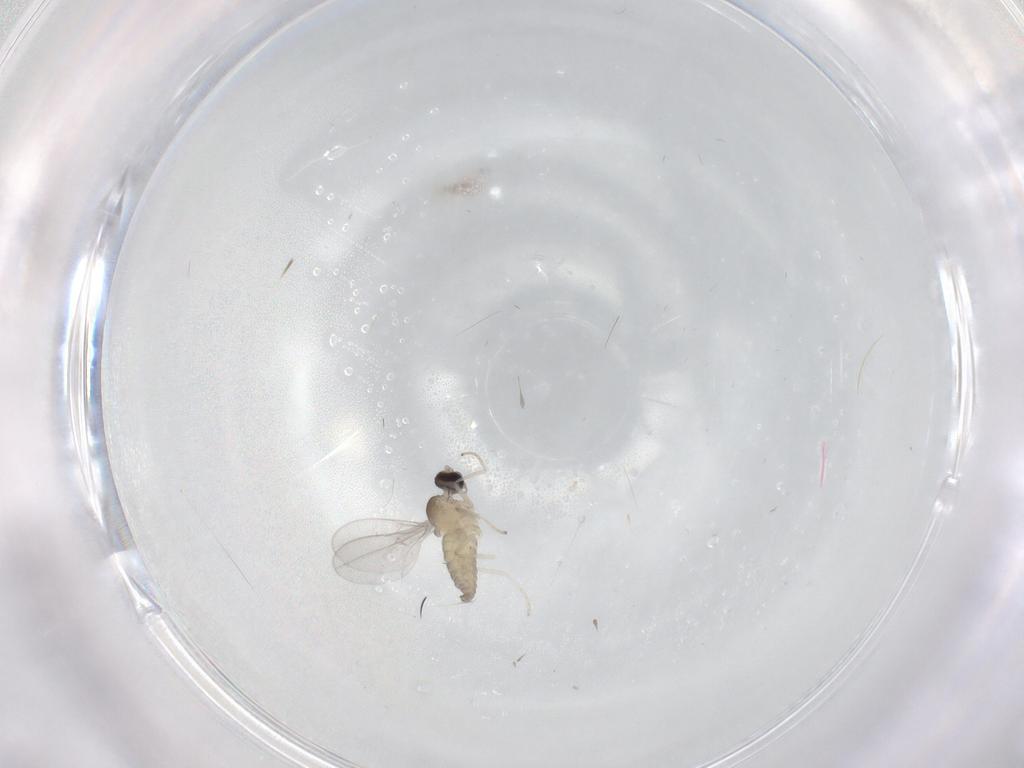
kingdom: Animalia
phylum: Arthropoda
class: Insecta
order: Diptera
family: Cecidomyiidae
